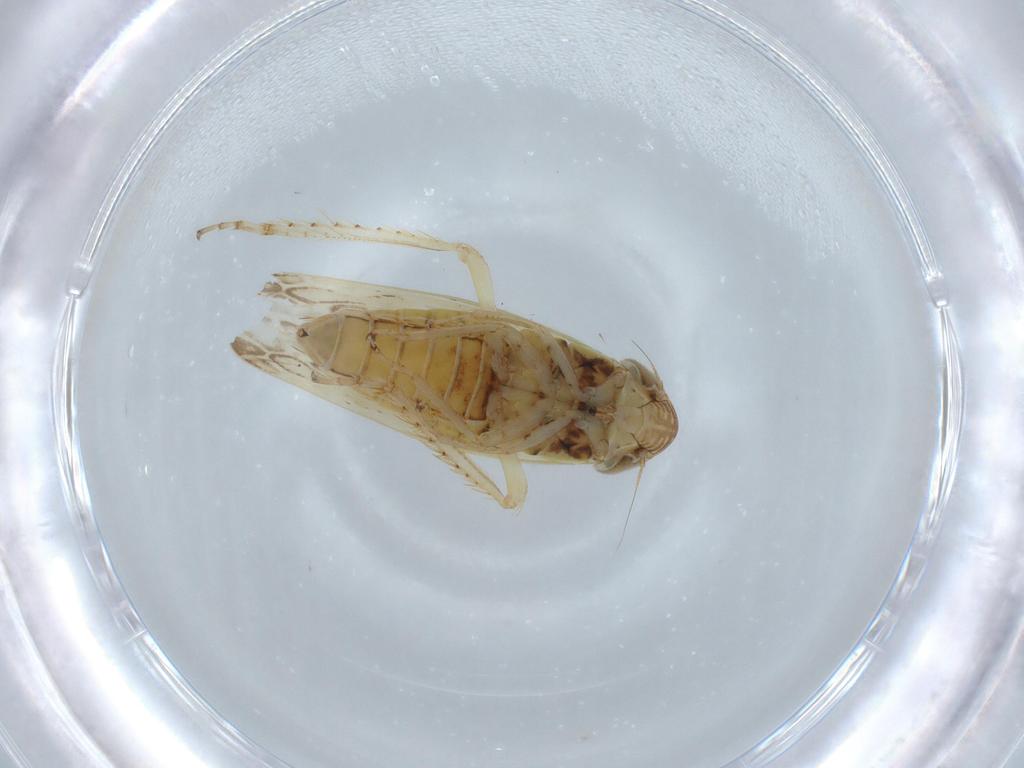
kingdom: Animalia
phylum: Arthropoda
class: Insecta
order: Hemiptera
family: Cicadellidae
